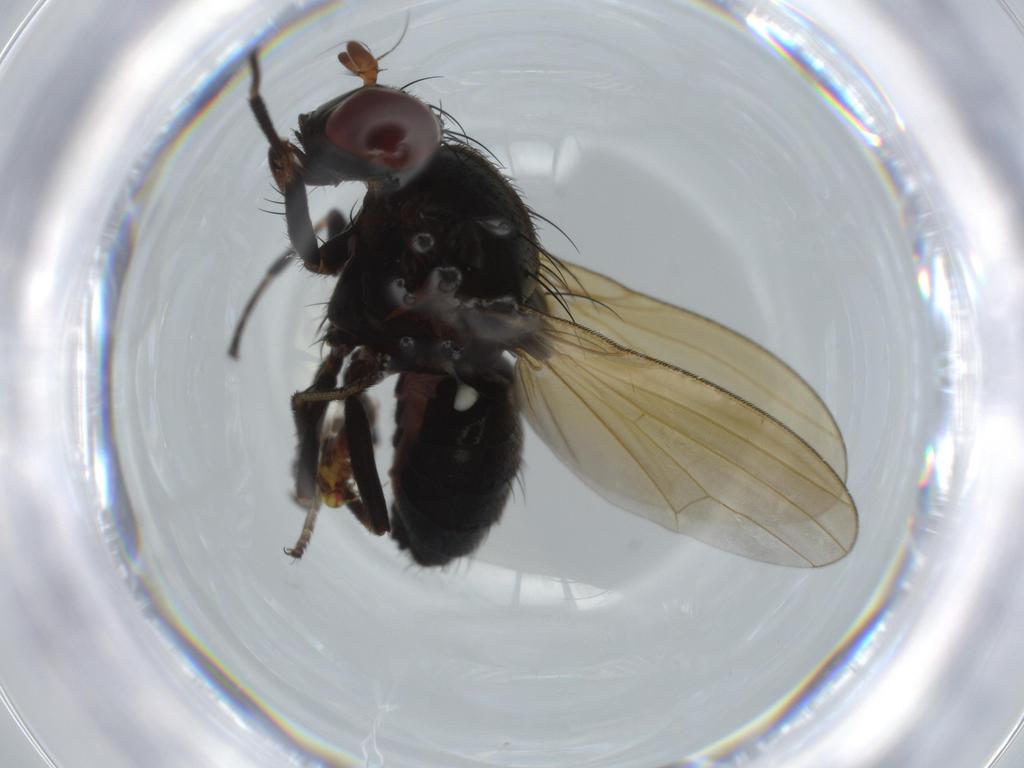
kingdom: Animalia
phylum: Arthropoda
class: Insecta
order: Diptera
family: Lauxaniidae
